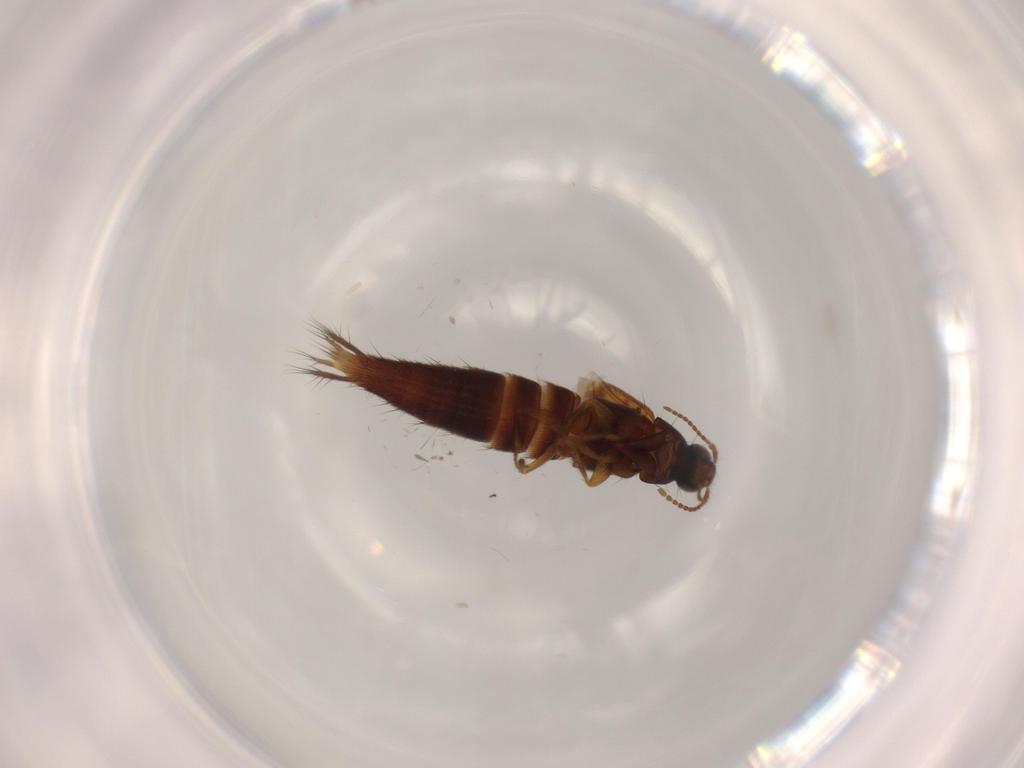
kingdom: Animalia
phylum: Arthropoda
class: Insecta
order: Coleoptera
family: Staphylinidae
